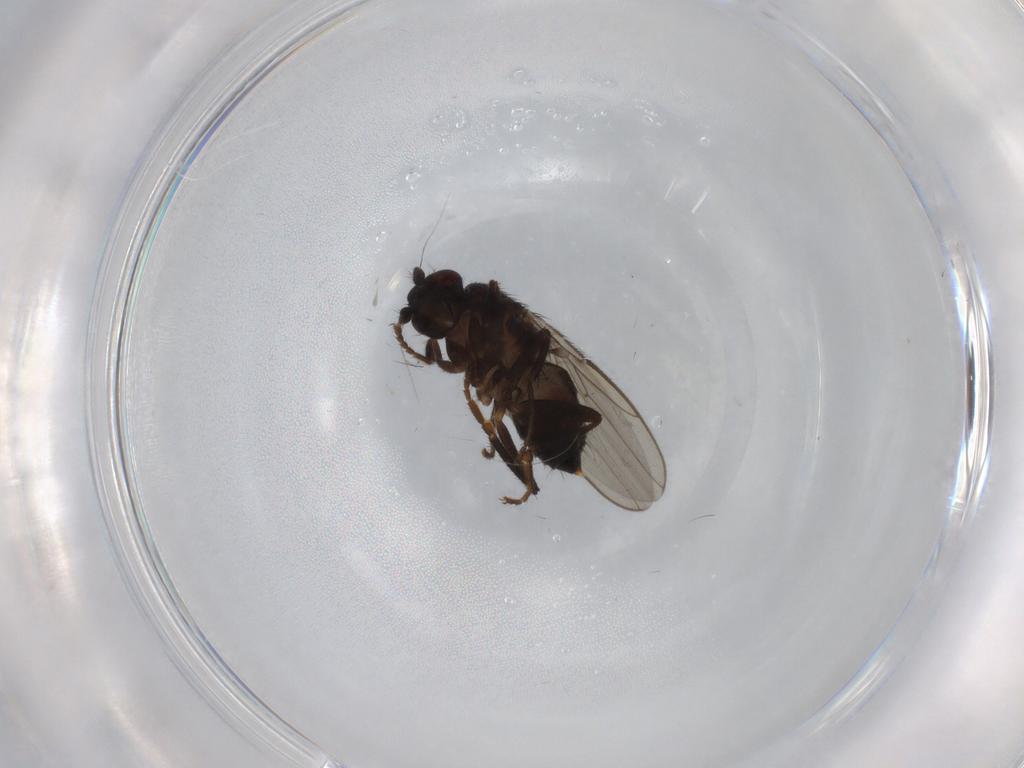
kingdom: Animalia
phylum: Arthropoda
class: Insecta
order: Diptera
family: Sphaeroceridae
